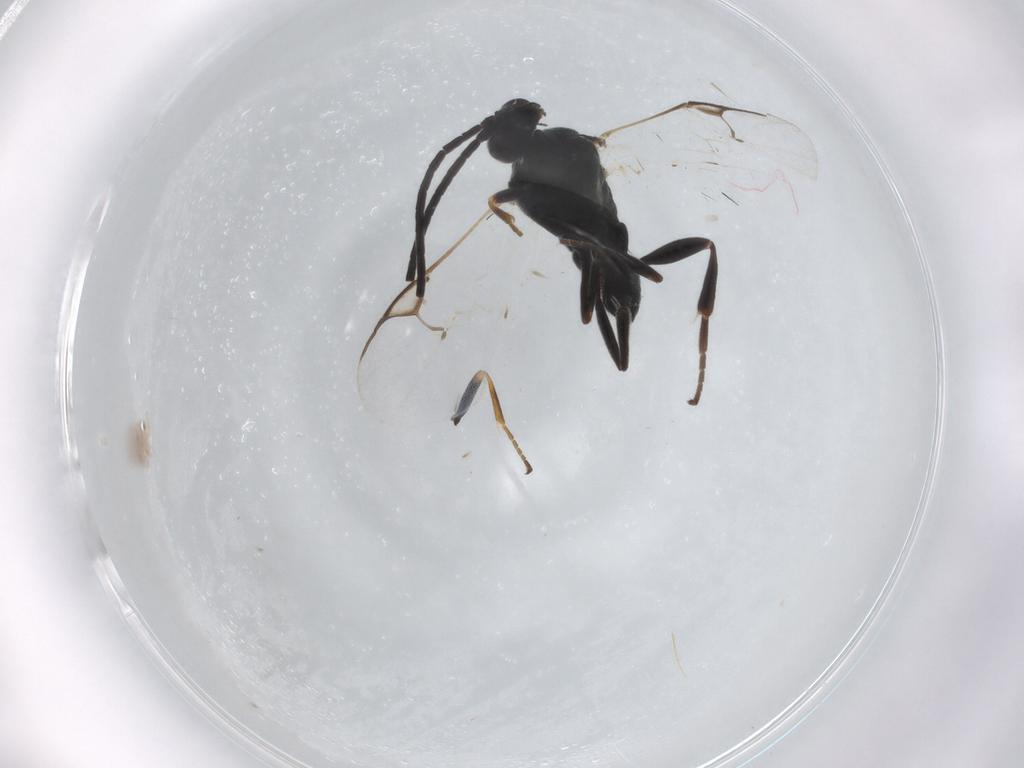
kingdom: Animalia
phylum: Arthropoda
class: Insecta
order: Hymenoptera
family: Braconidae
